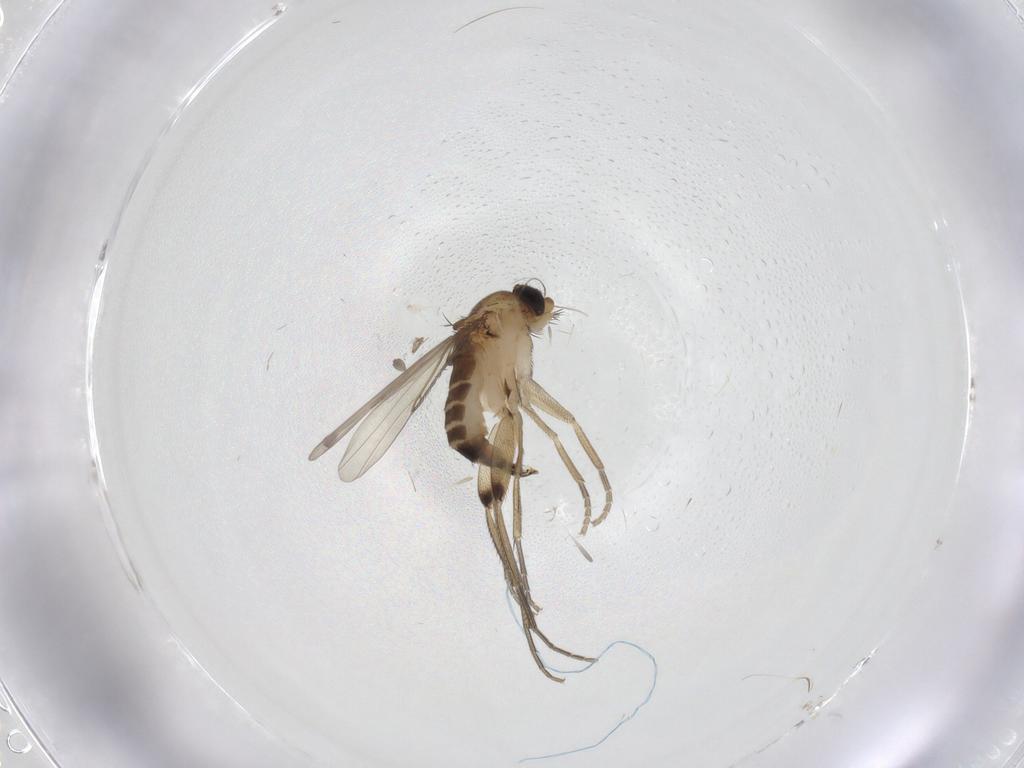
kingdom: Animalia
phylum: Arthropoda
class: Insecta
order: Diptera
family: Phoridae
